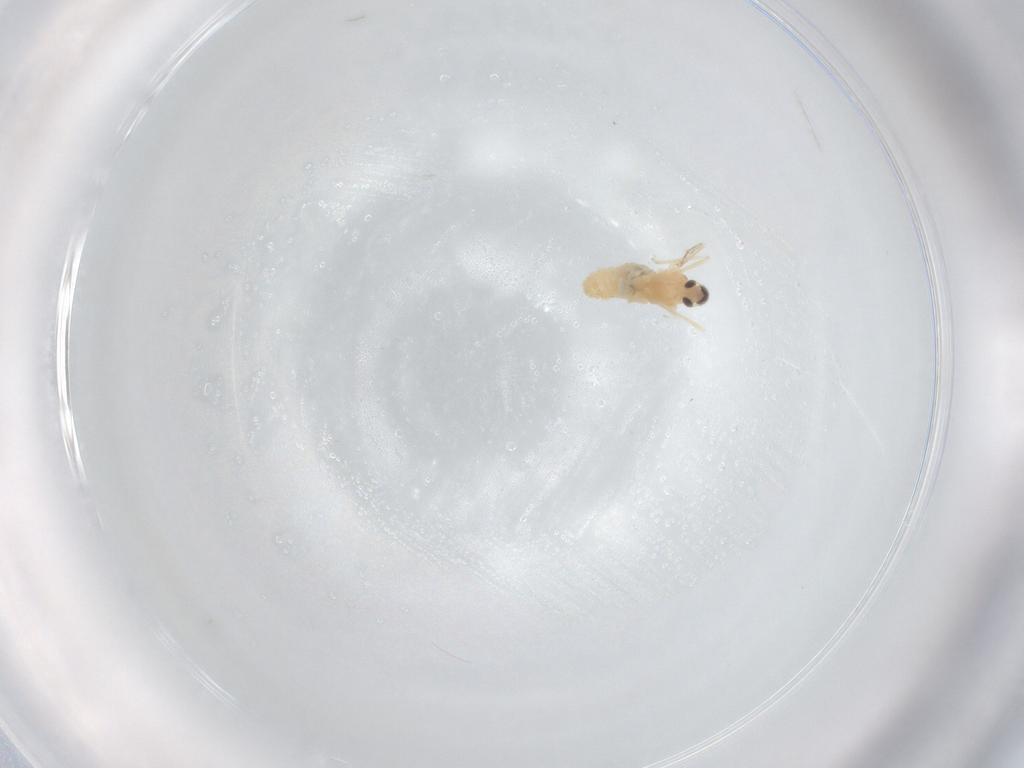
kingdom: Animalia
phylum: Arthropoda
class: Insecta
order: Diptera
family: Cecidomyiidae
